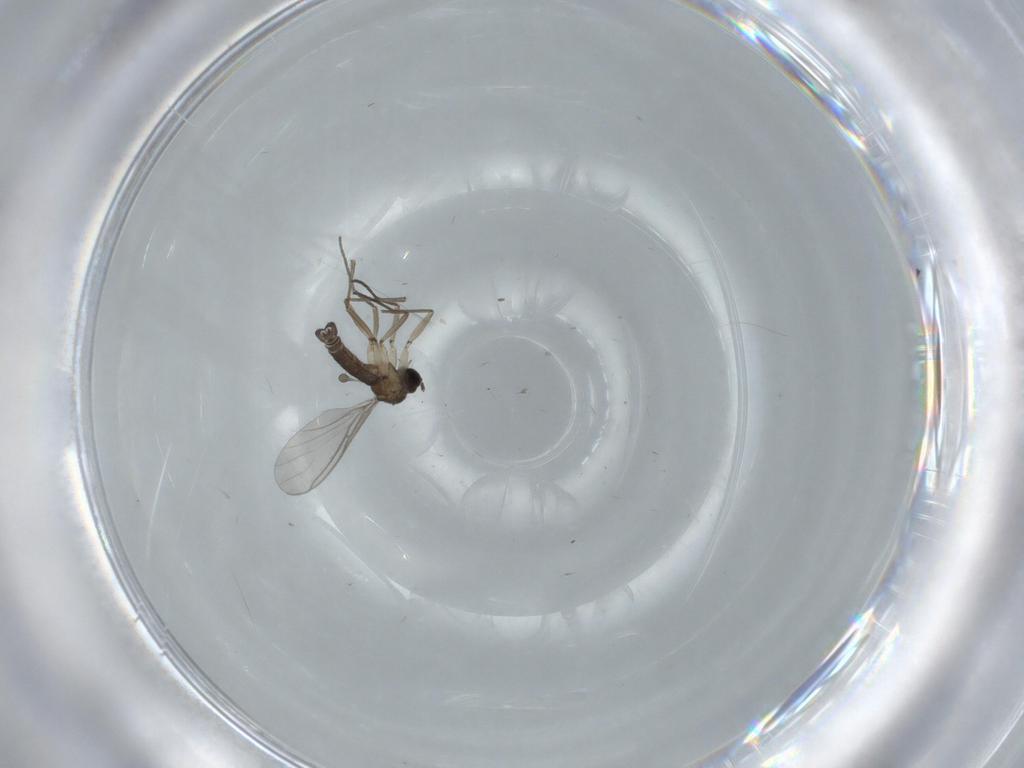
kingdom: Animalia
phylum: Arthropoda
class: Insecta
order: Diptera
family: Sciaridae
